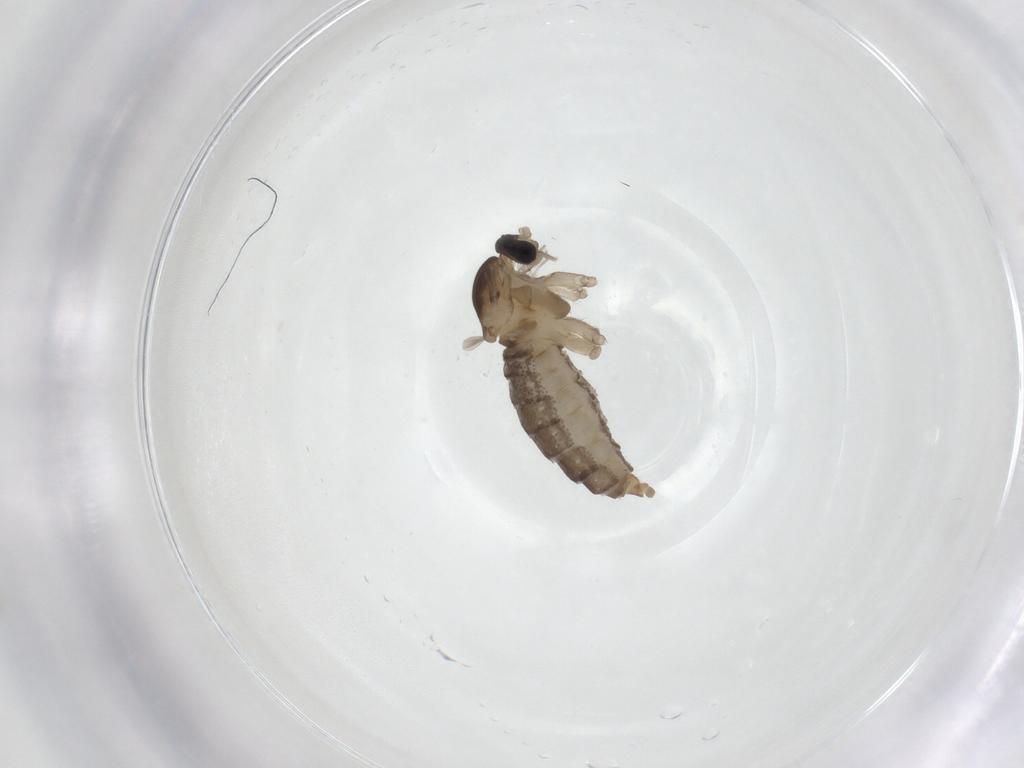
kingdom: Animalia
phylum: Arthropoda
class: Insecta
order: Diptera
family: Cecidomyiidae
